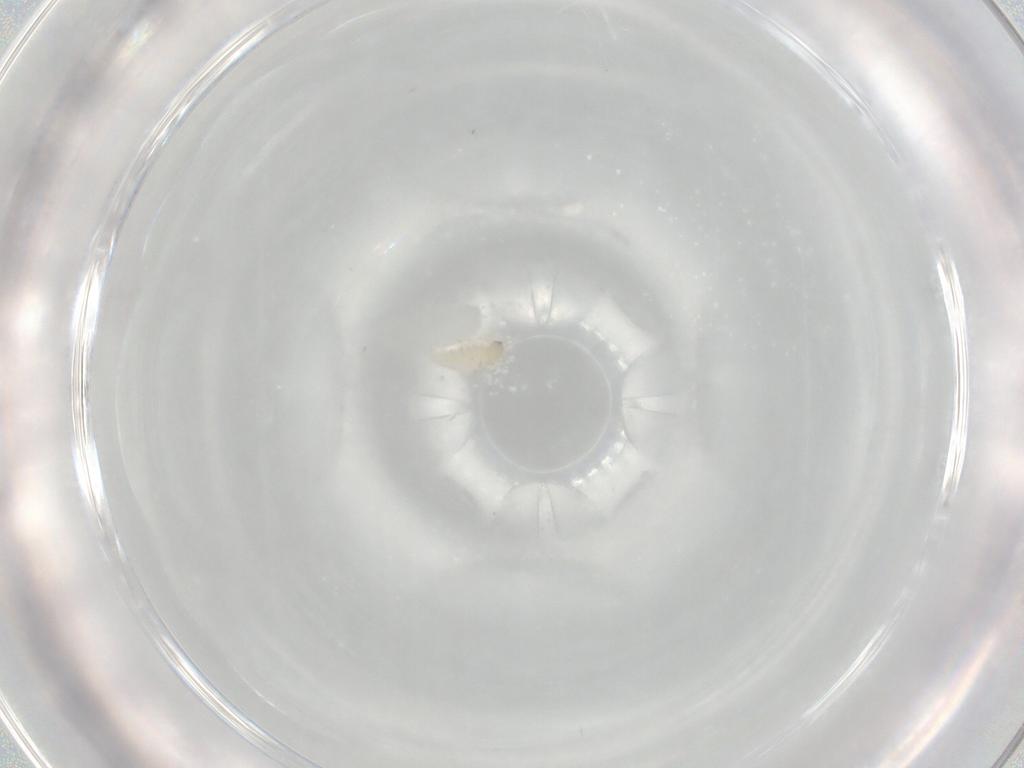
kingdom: Animalia
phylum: Arthropoda
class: Insecta
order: Coleoptera
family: Chrysomelidae
